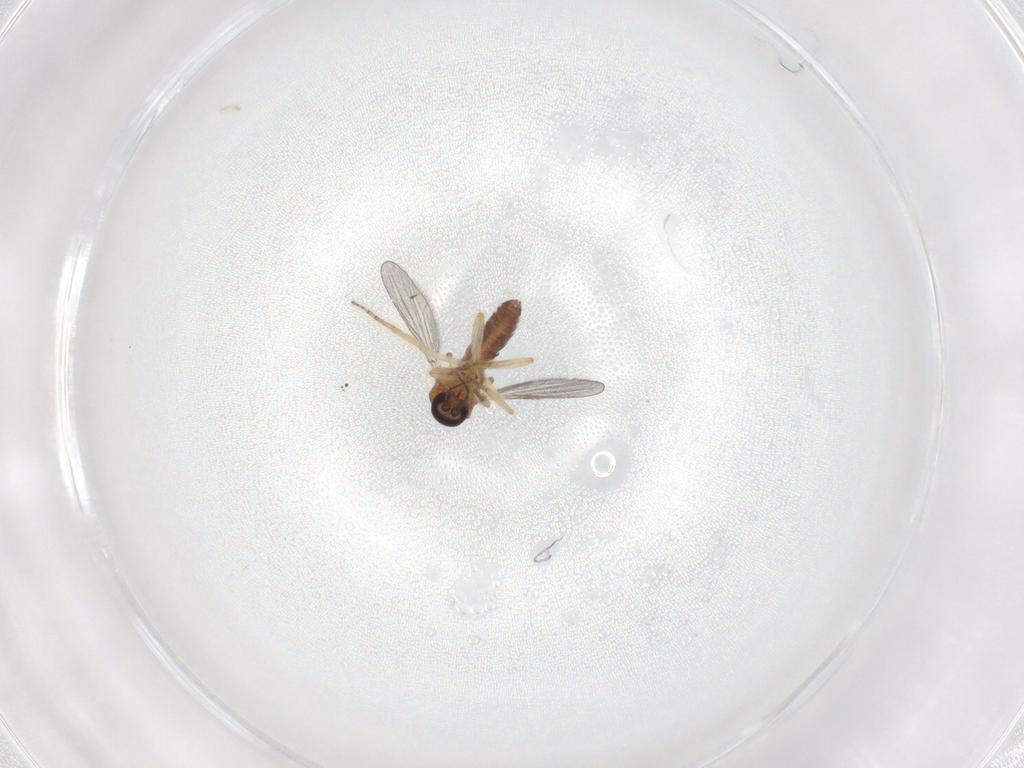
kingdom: Animalia
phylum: Arthropoda
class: Insecta
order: Diptera
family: Ceratopogonidae
